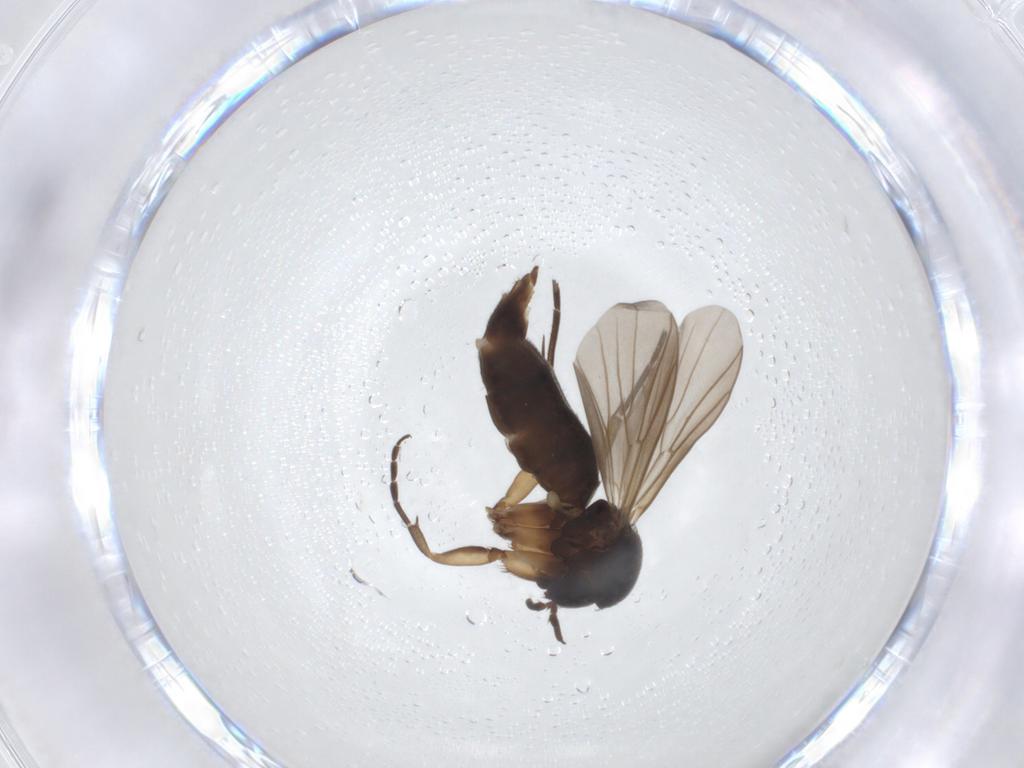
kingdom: Animalia
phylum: Arthropoda
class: Insecta
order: Diptera
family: Mycetophilidae
